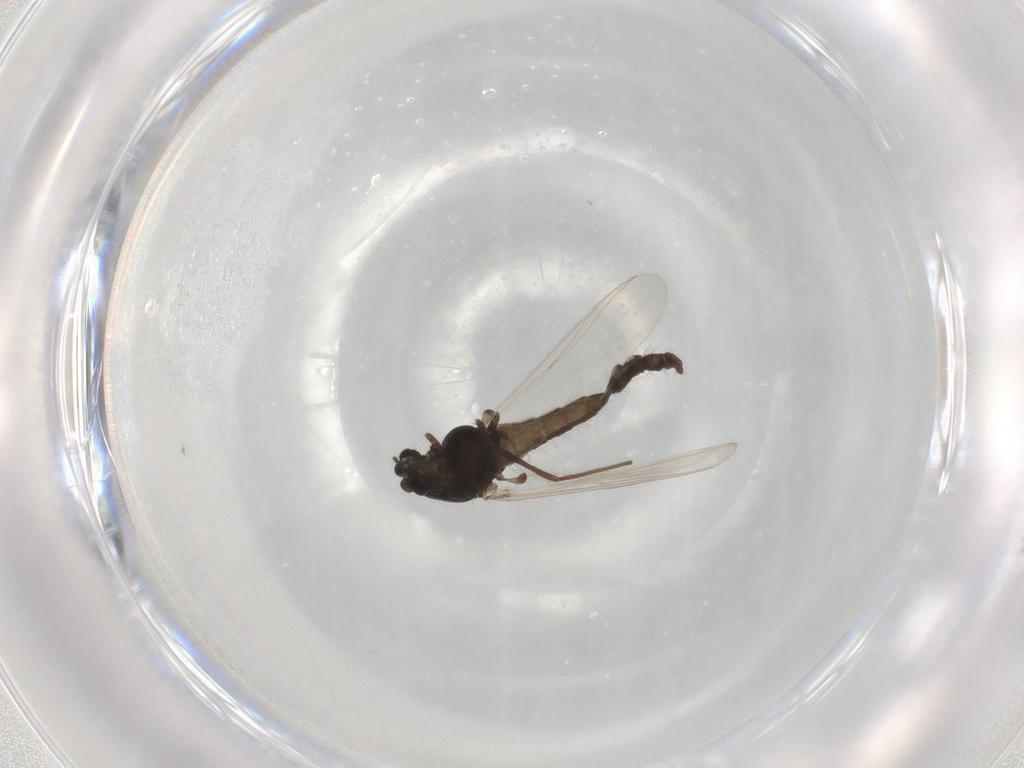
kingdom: Animalia
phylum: Arthropoda
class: Insecta
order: Diptera
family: Chironomidae
